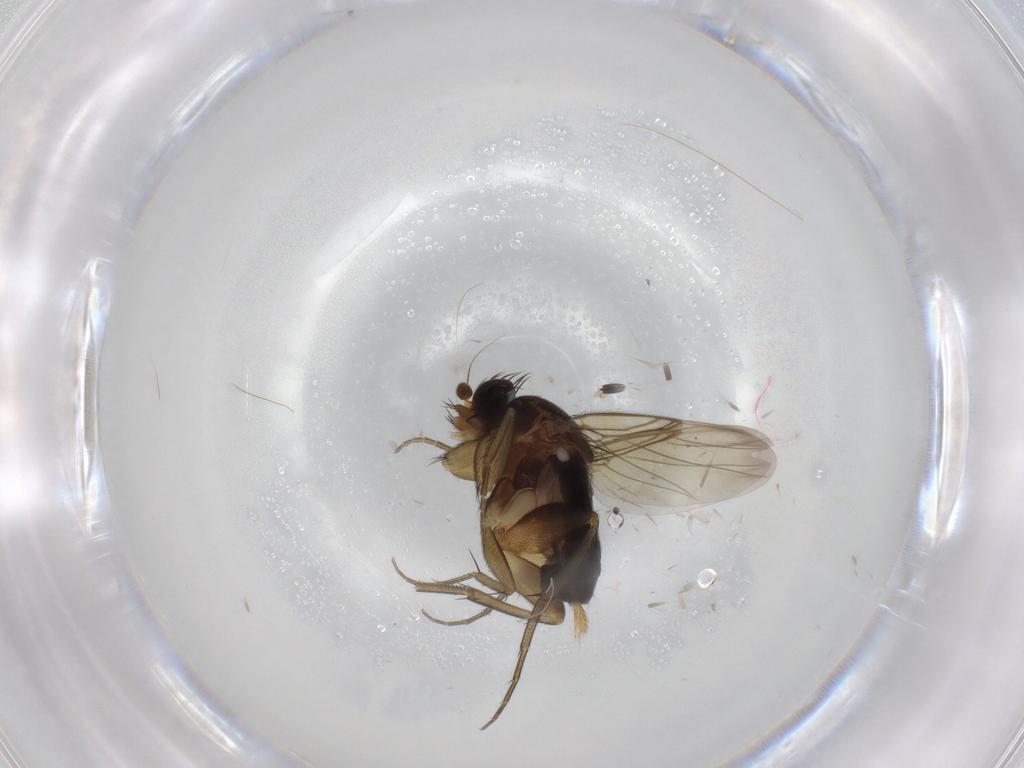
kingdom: Animalia
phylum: Arthropoda
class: Insecta
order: Diptera
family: Phoridae
